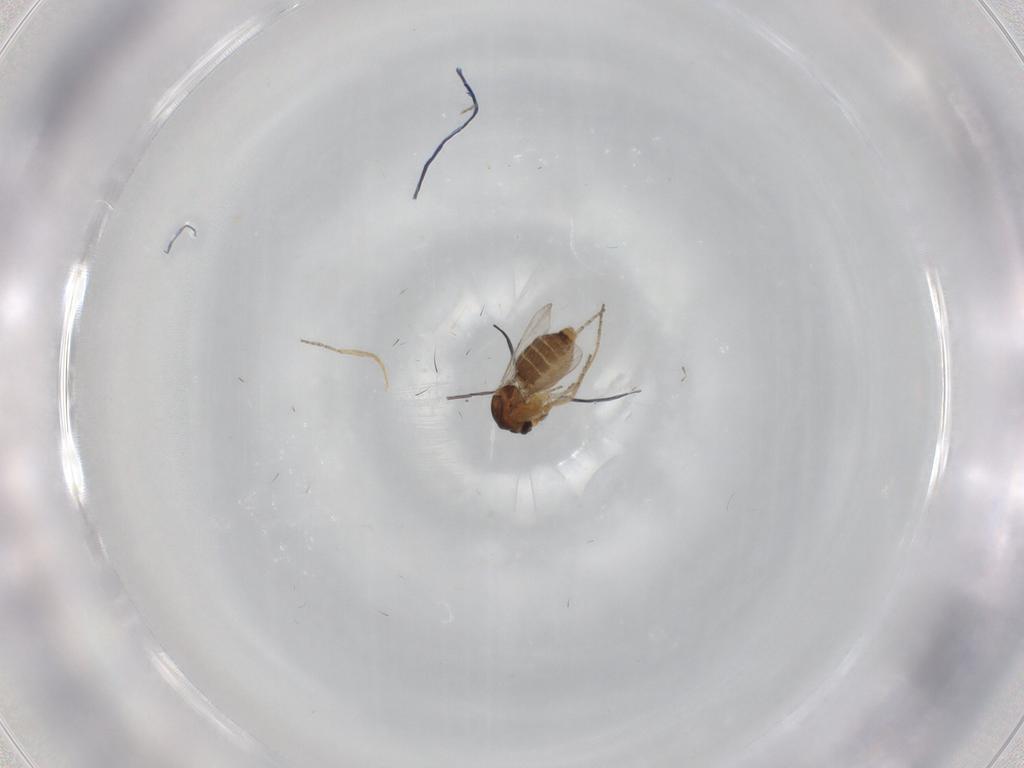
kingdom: Animalia
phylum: Arthropoda
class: Insecta
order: Diptera
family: Ceratopogonidae
